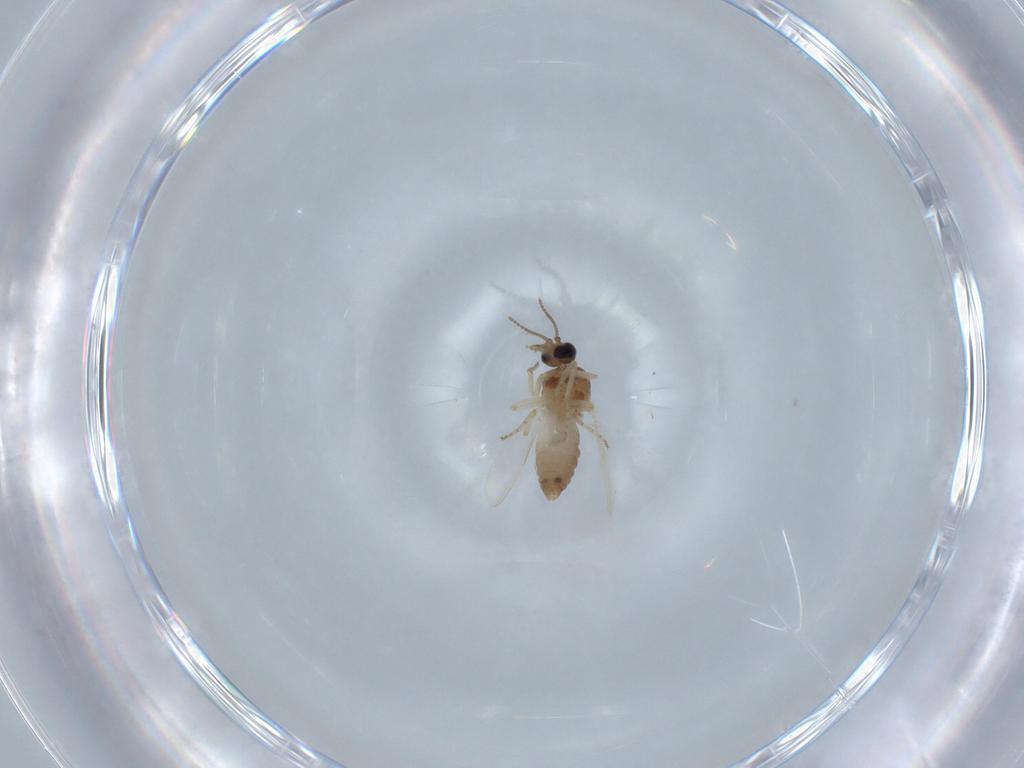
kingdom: Animalia
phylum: Arthropoda
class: Insecta
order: Diptera
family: Ceratopogonidae
